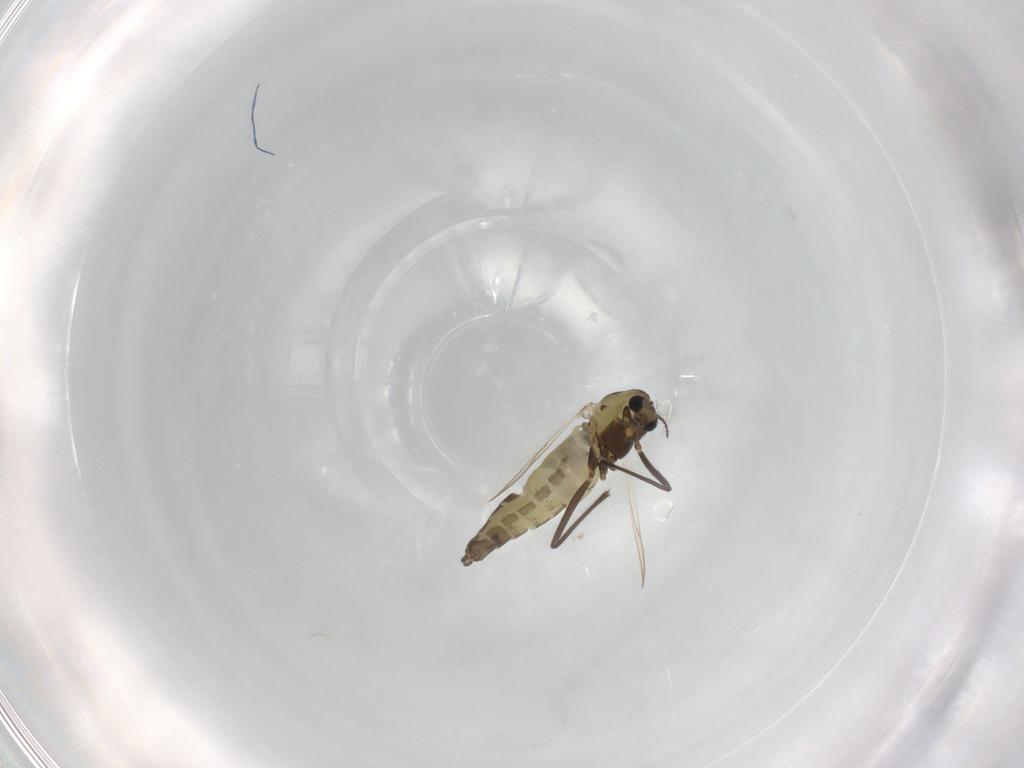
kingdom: Animalia
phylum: Arthropoda
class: Insecta
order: Diptera
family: Chironomidae
